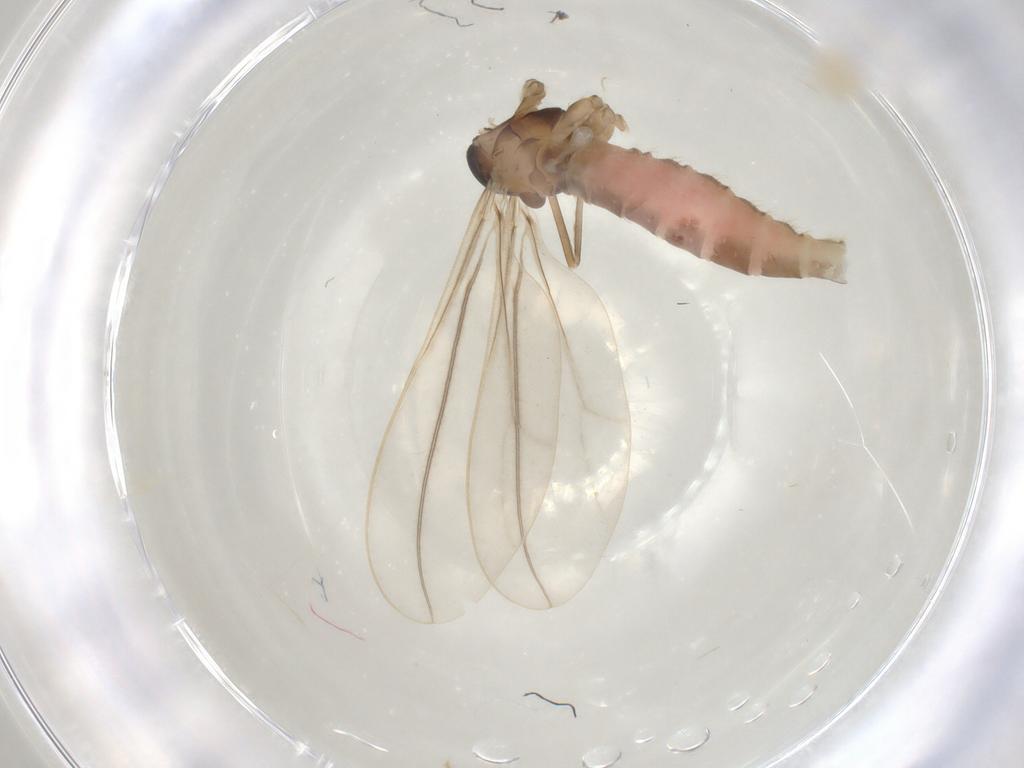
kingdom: Animalia
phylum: Arthropoda
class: Insecta
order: Diptera
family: Cecidomyiidae
